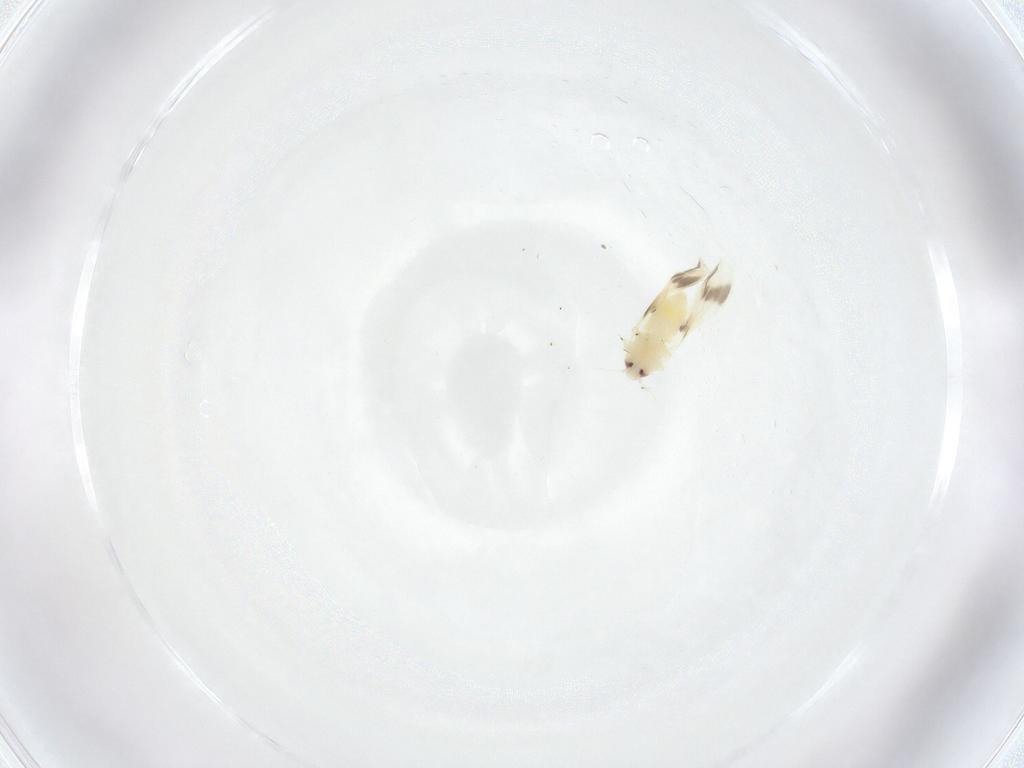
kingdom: Animalia
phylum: Arthropoda
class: Insecta
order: Hemiptera
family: Aleyrodidae
